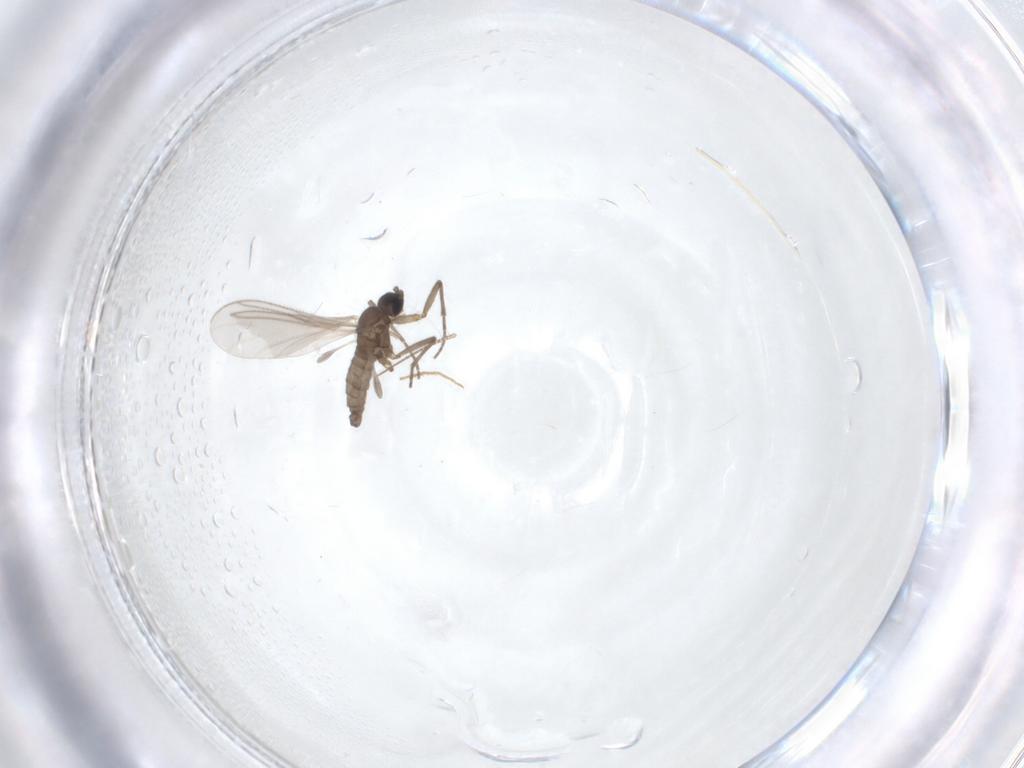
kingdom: Animalia
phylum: Arthropoda
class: Insecta
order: Diptera
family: Sciaridae
